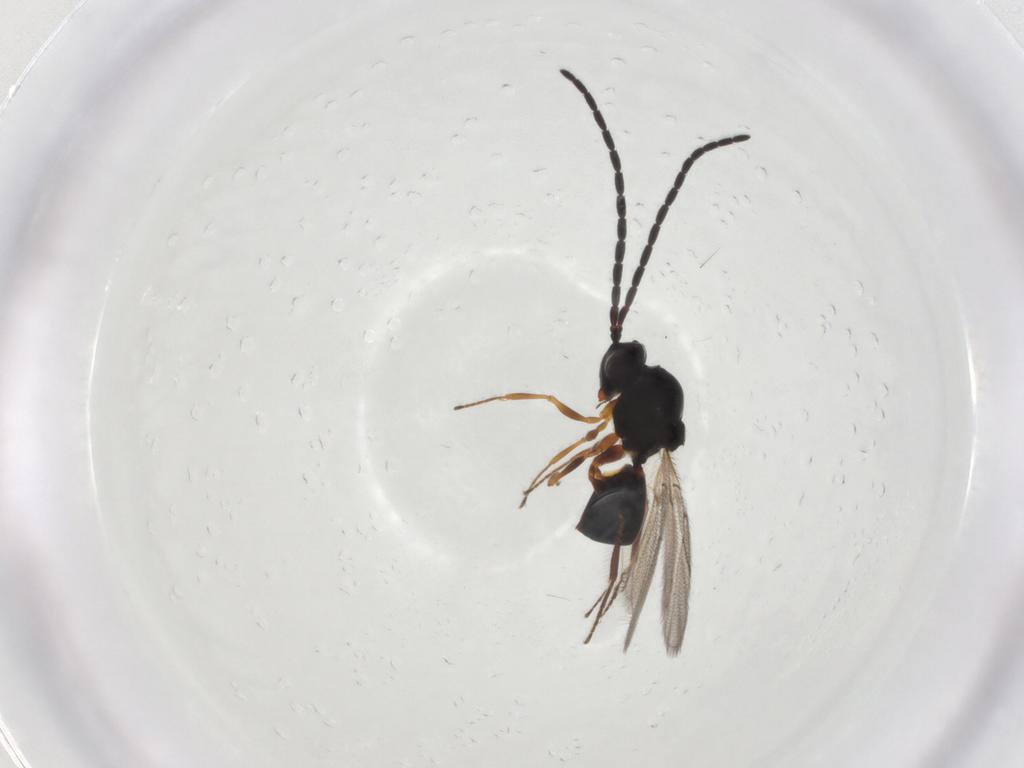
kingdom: Animalia
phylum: Arthropoda
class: Insecta
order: Hymenoptera
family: Figitidae
